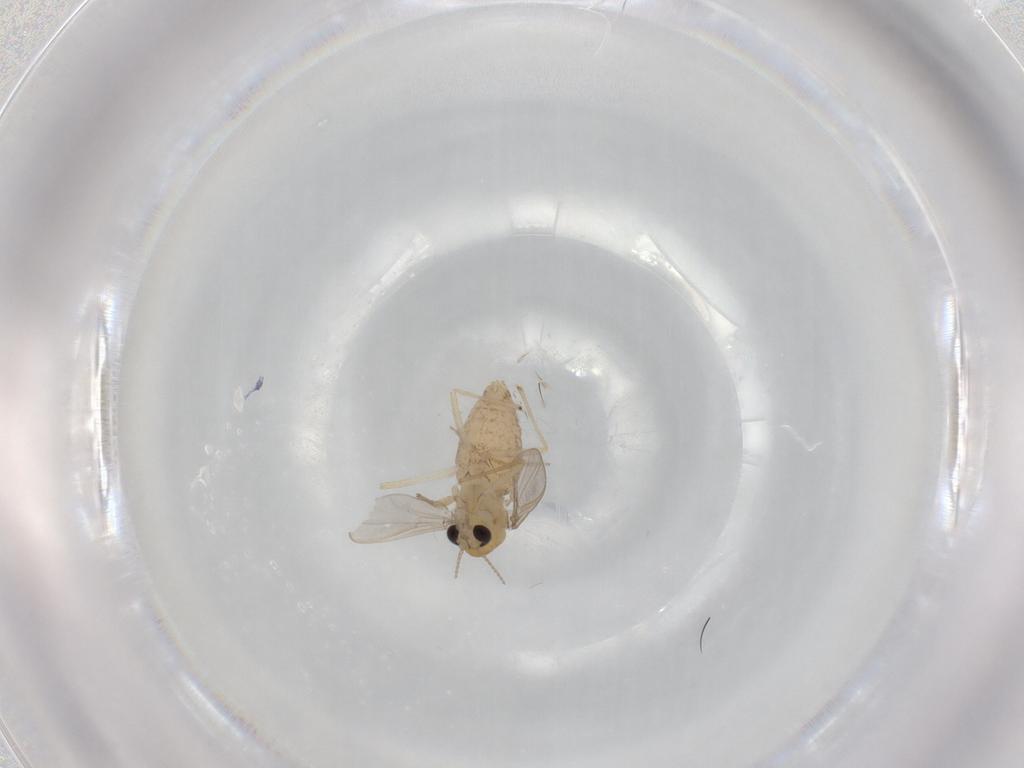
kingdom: Animalia
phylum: Arthropoda
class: Insecta
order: Diptera
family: Chironomidae
